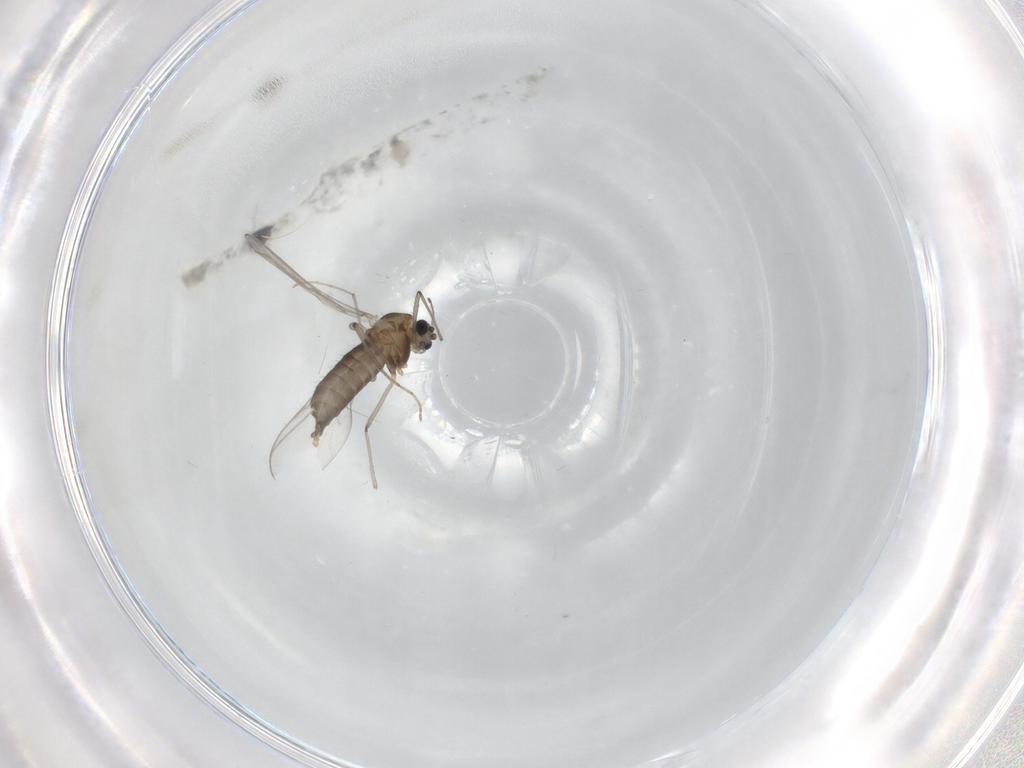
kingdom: Animalia
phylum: Arthropoda
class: Insecta
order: Diptera
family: Chironomidae
